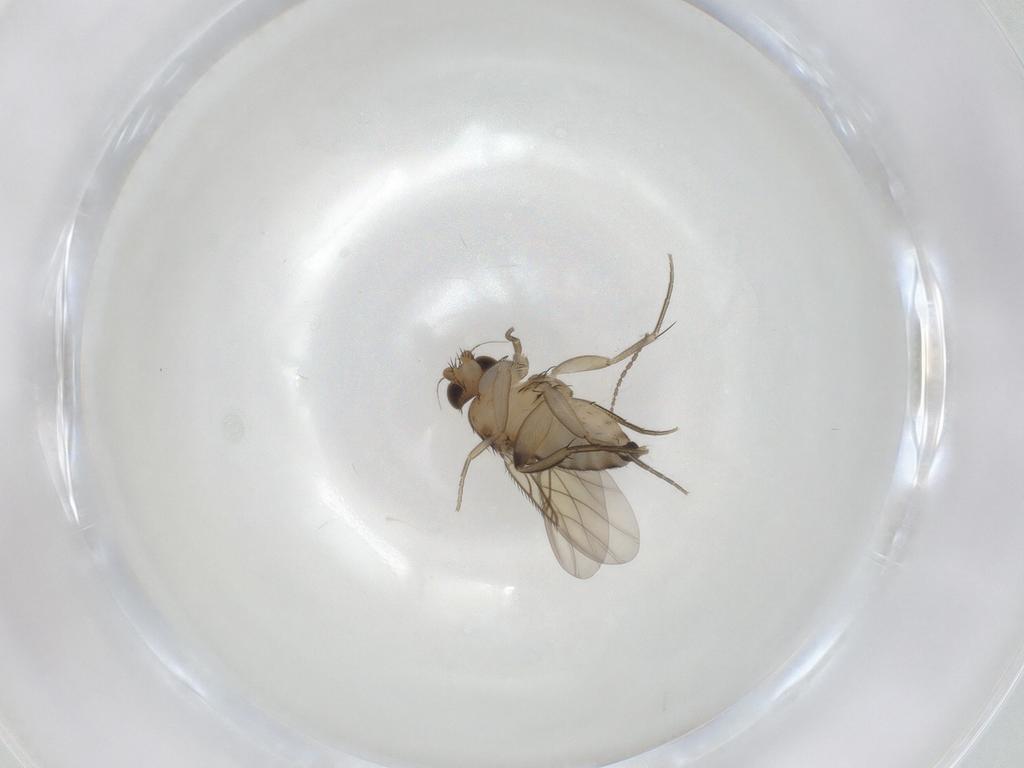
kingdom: Animalia
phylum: Arthropoda
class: Insecta
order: Diptera
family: Cecidomyiidae
